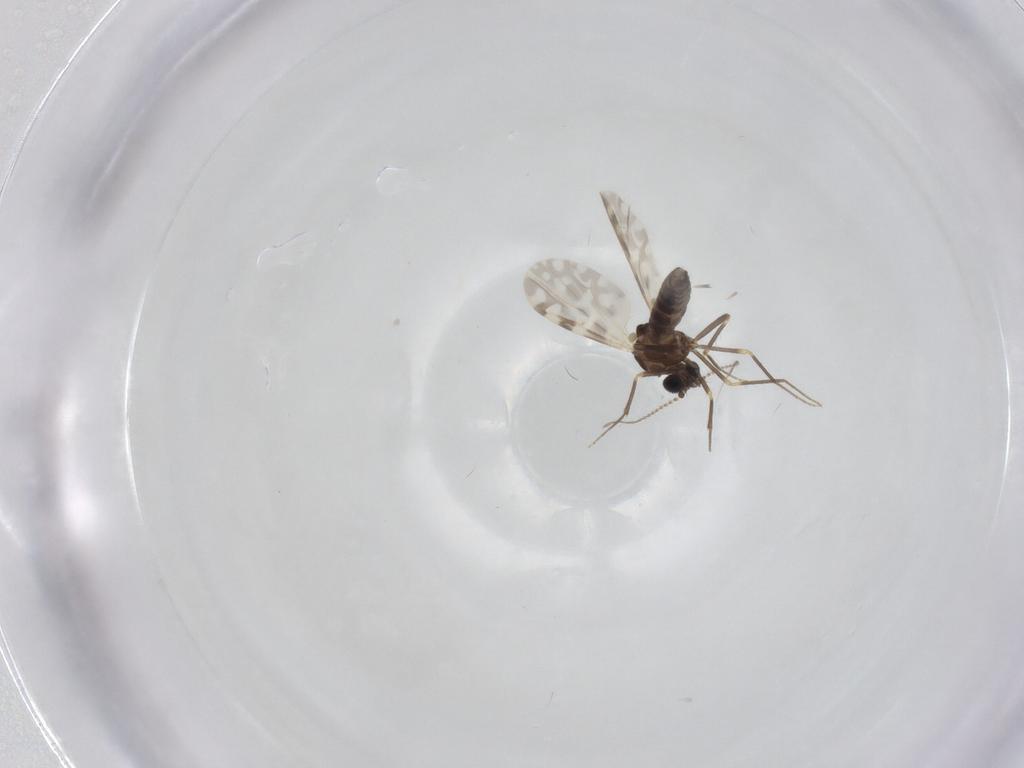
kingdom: Animalia
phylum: Arthropoda
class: Insecta
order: Diptera
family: Ceratopogonidae
